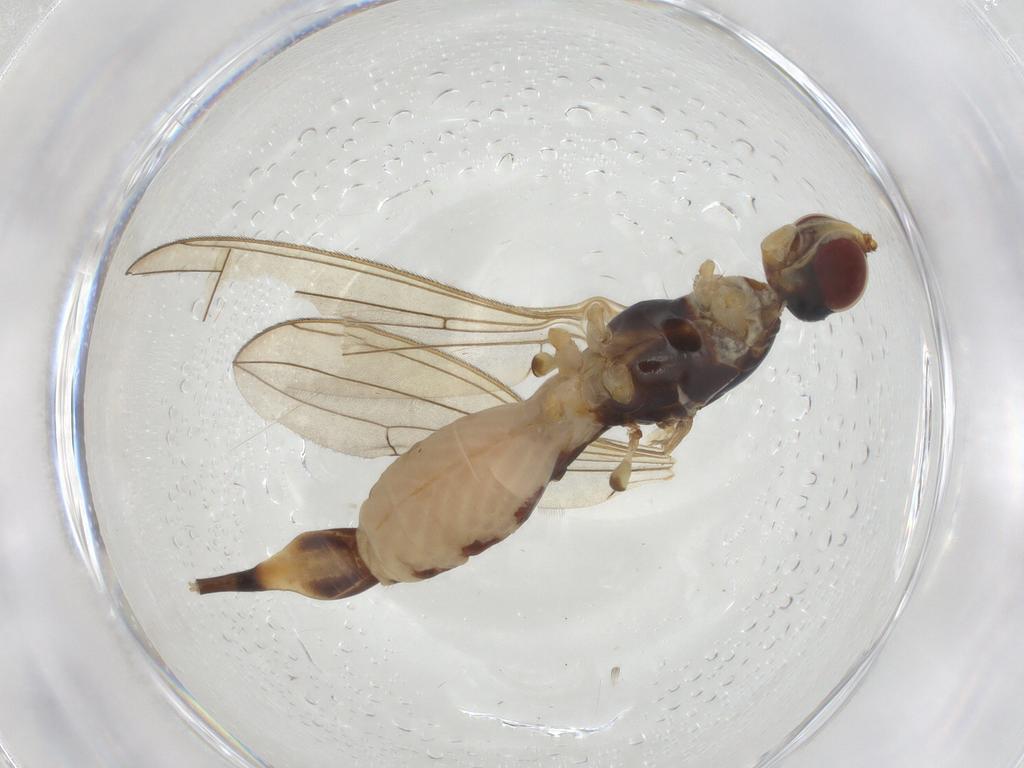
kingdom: Animalia
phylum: Arthropoda
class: Insecta
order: Diptera
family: Micropezidae
